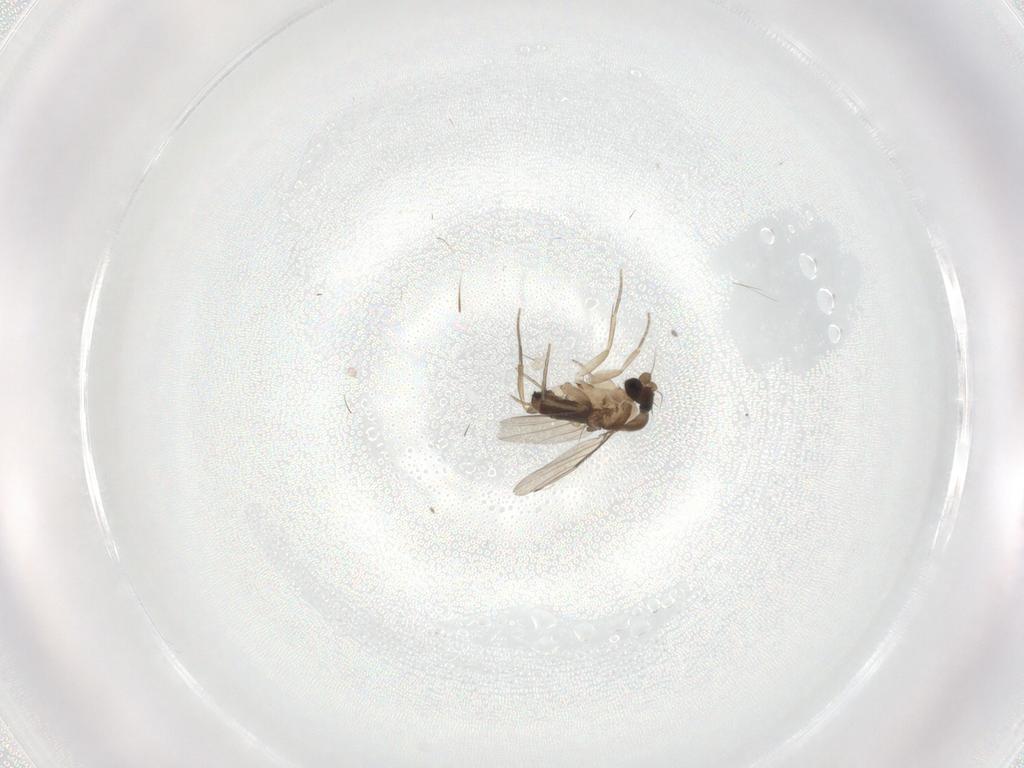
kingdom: Animalia
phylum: Arthropoda
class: Insecta
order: Diptera
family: Phoridae
